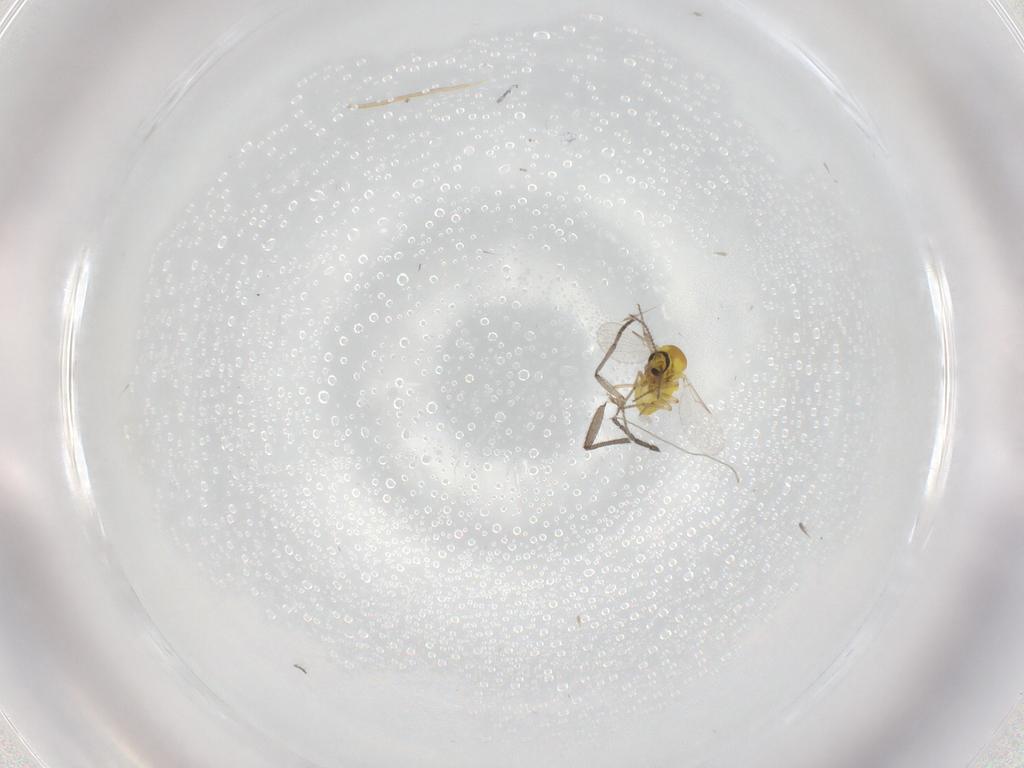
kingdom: Animalia
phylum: Arthropoda
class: Insecta
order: Diptera
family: Ceratopogonidae
